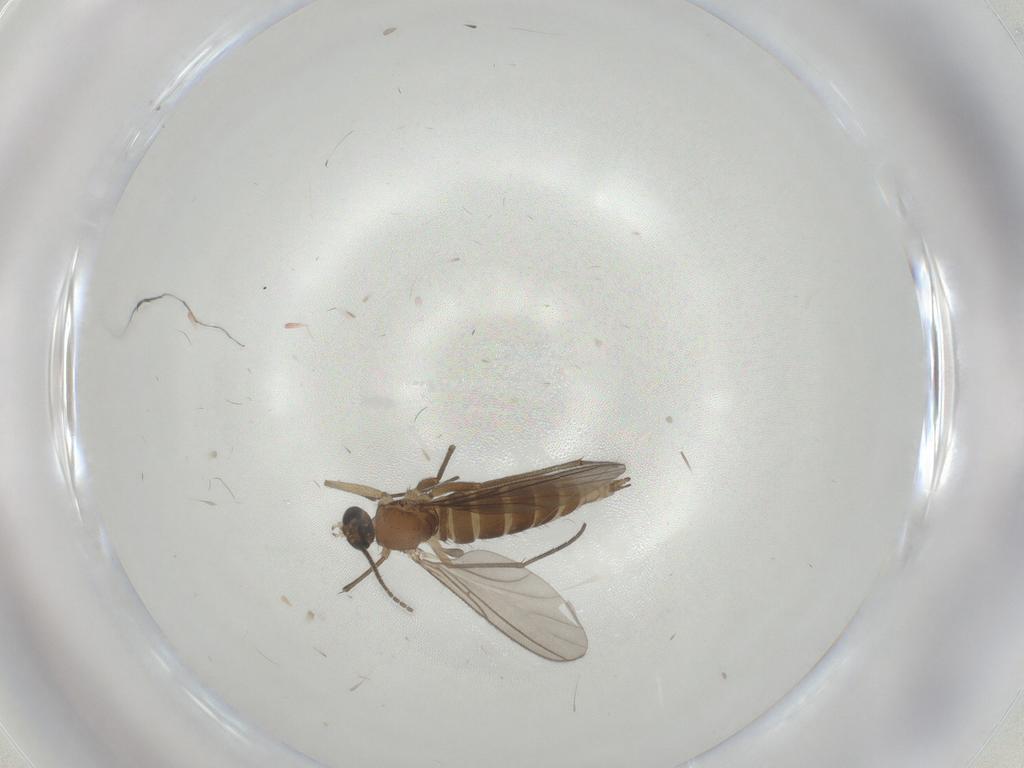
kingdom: Animalia
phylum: Arthropoda
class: Insecta
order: Diptera
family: Sciaridae
